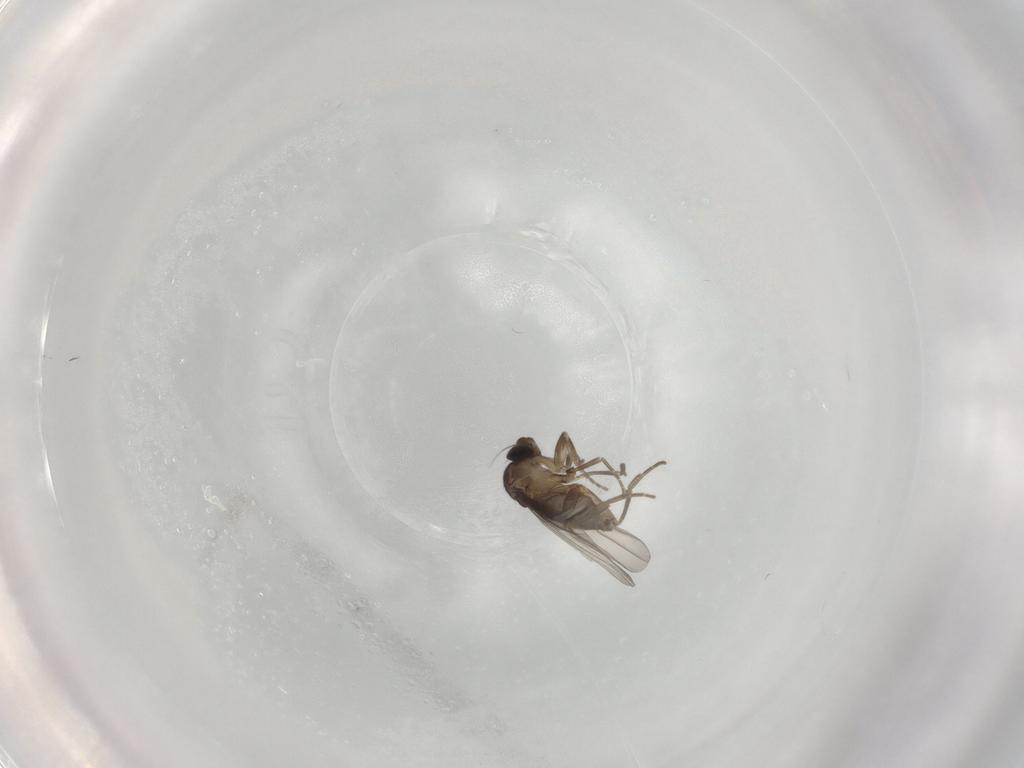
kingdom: Animalia
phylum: Arthropoda
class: Insecta
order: Diptera
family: Phoridae
